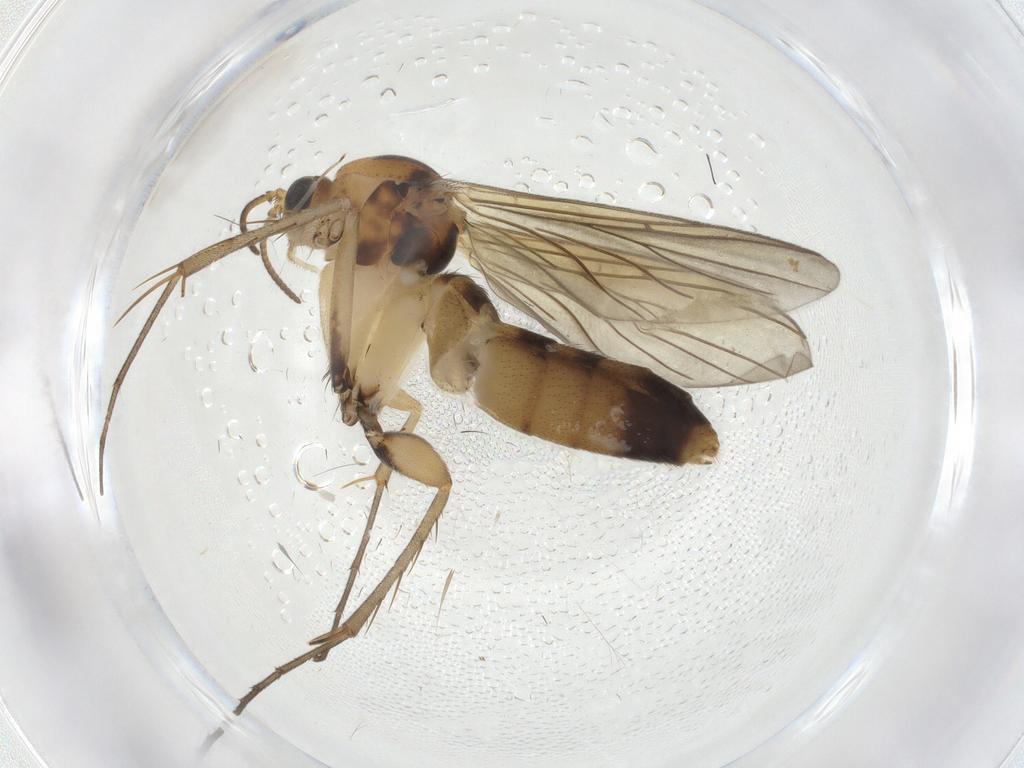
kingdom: Animalia
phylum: Arthropoda
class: Insecta
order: Diptera
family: Mycetophilidae
